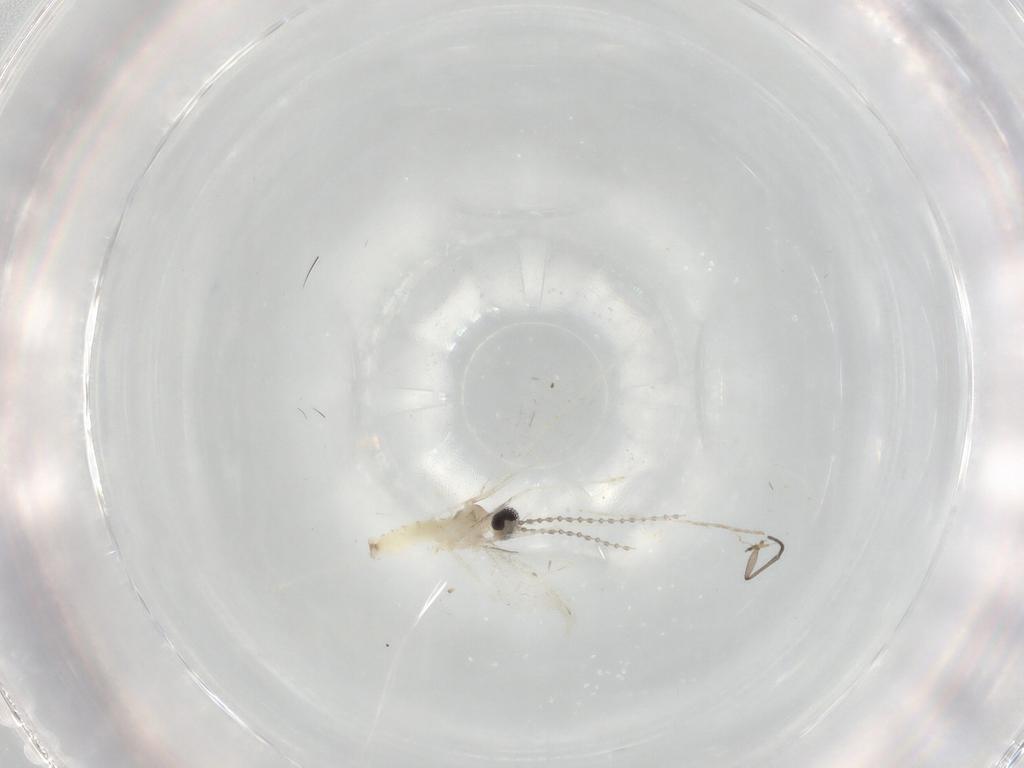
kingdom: Animalia
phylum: Arthropoda
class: Insecta
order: Diptera
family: Cecidomyiidae
